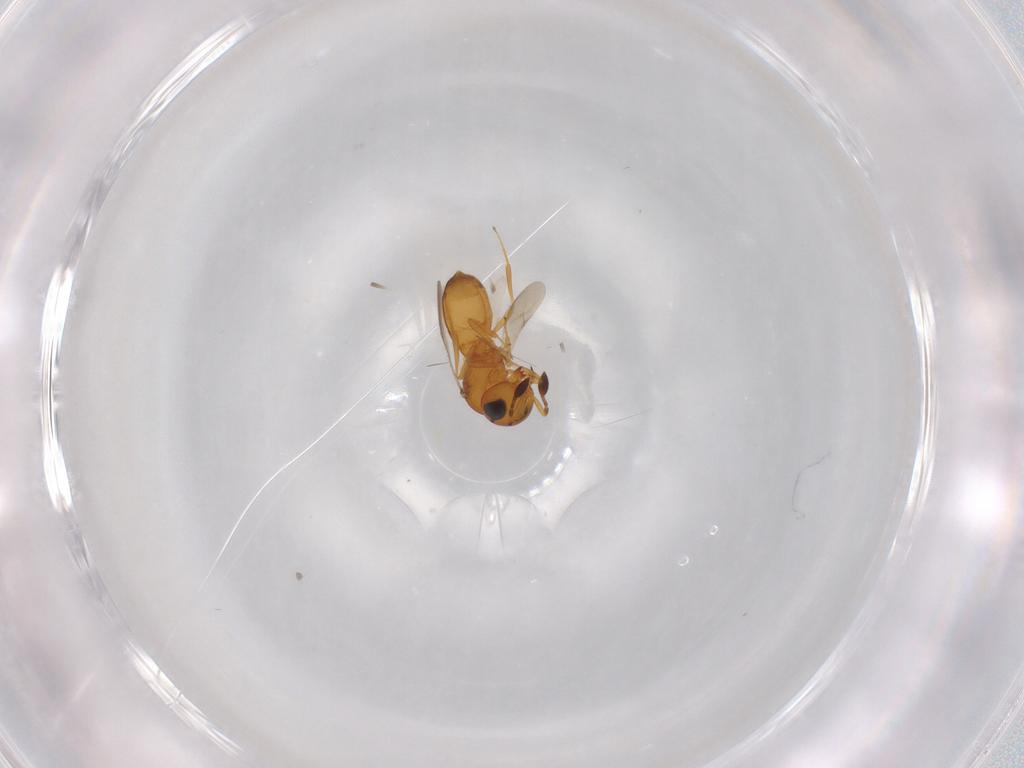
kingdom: Animalia
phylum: Arthropoda
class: Insecta
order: Hymenoptera
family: Scelionidae
